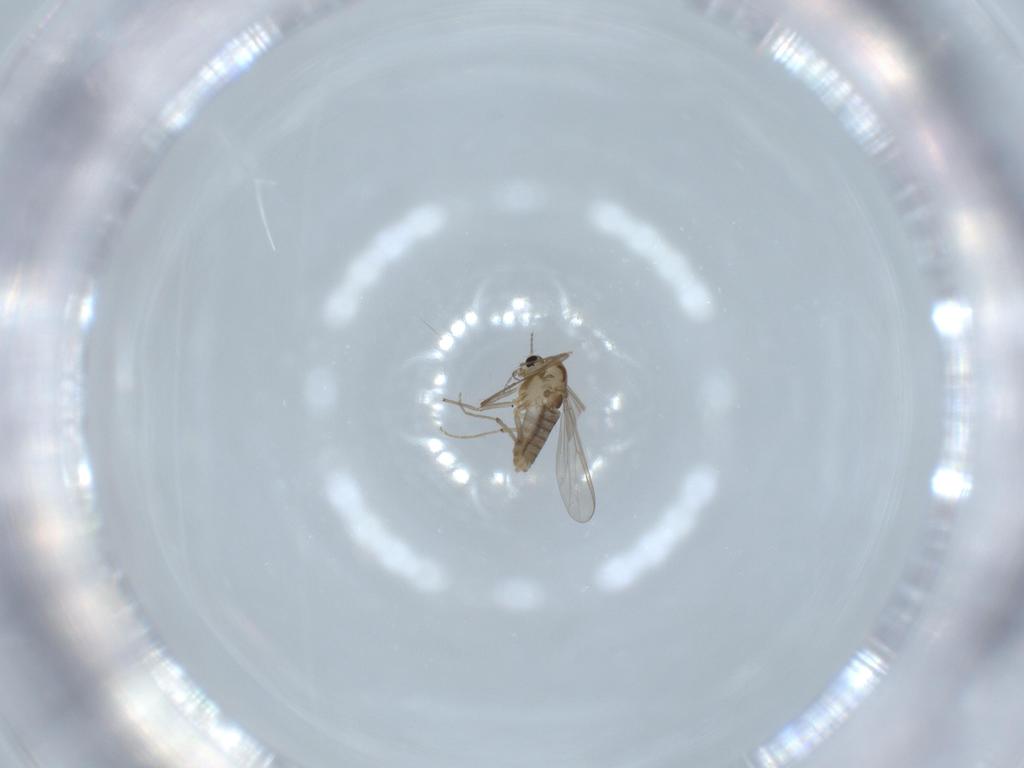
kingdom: Animalia
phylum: Arthropoda
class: Insecta
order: Diptera
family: Chironomidae
